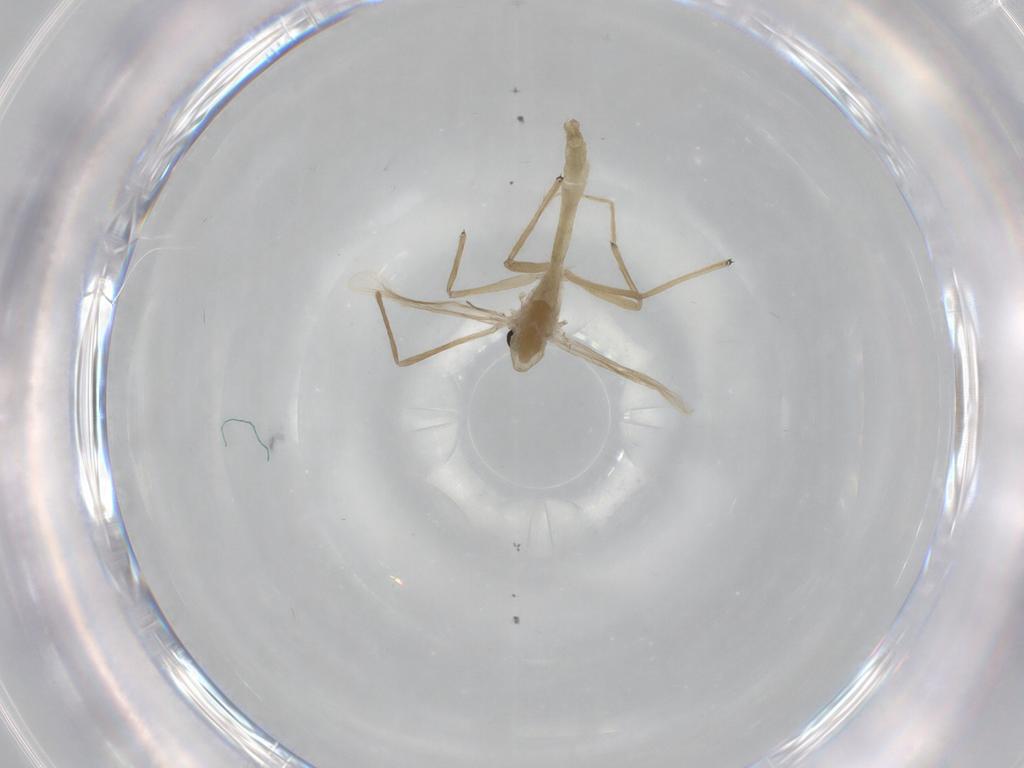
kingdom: Animalia
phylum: Arthropoda
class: Insecta
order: Diptera
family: Chironomidae
